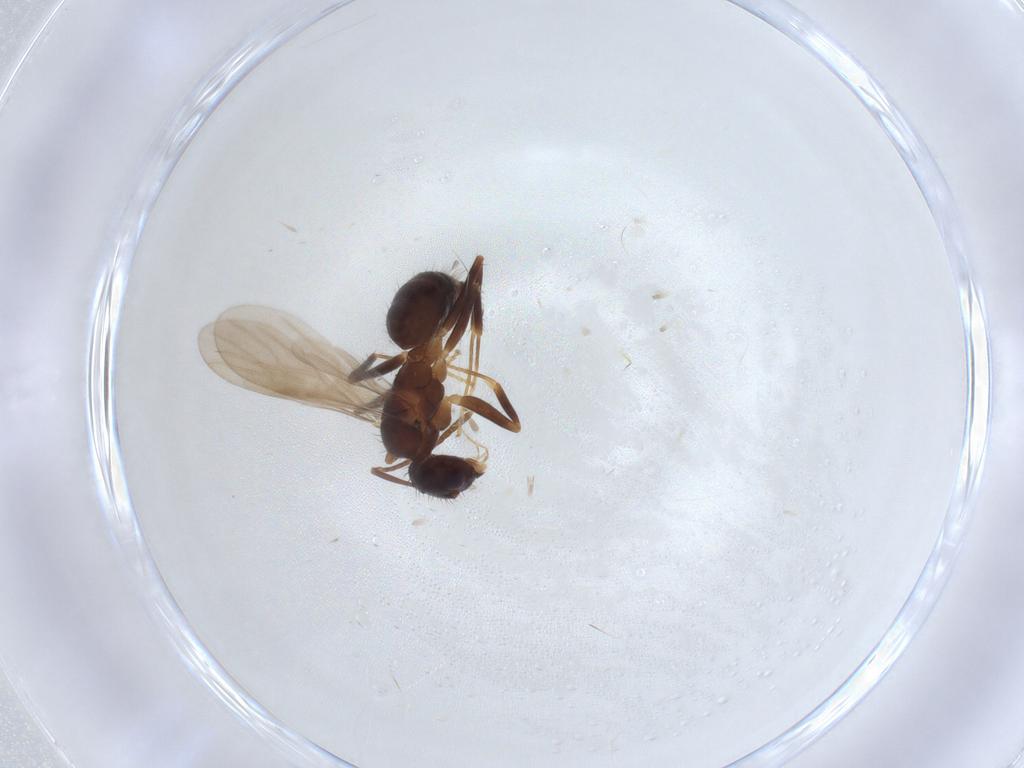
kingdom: Animalia
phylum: Arthropoda
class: Insecta
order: Hymenoptera
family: Formicidae
